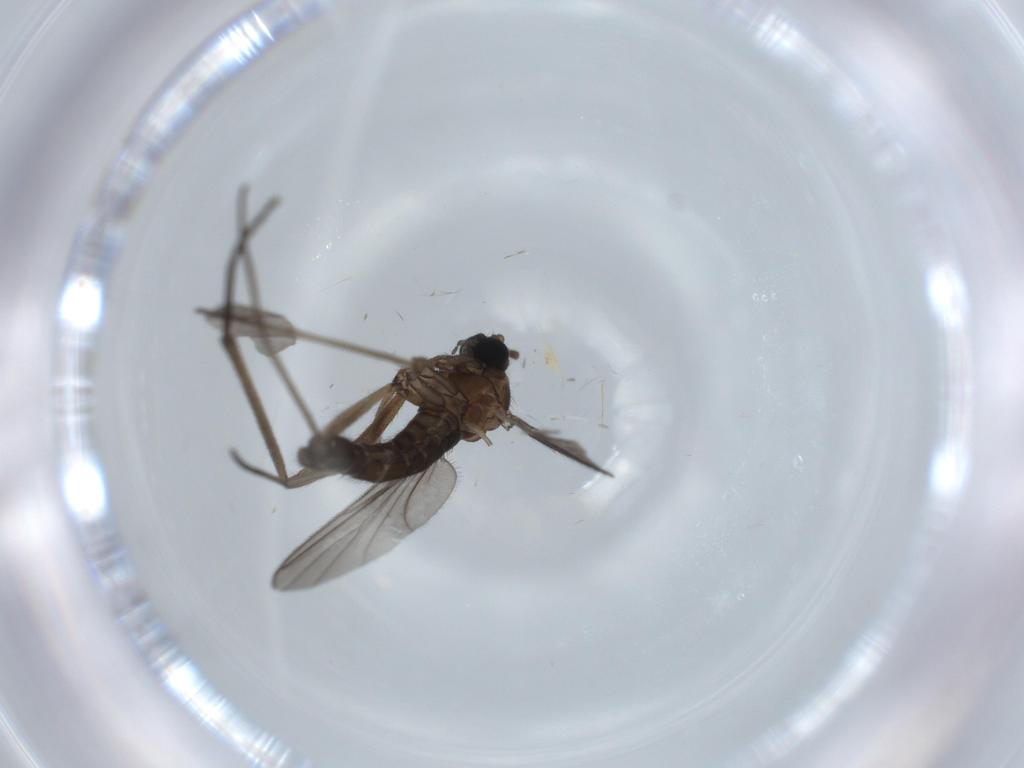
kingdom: Animalia
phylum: Arthropoda
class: Insecta
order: Diptera
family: Sciaridae
